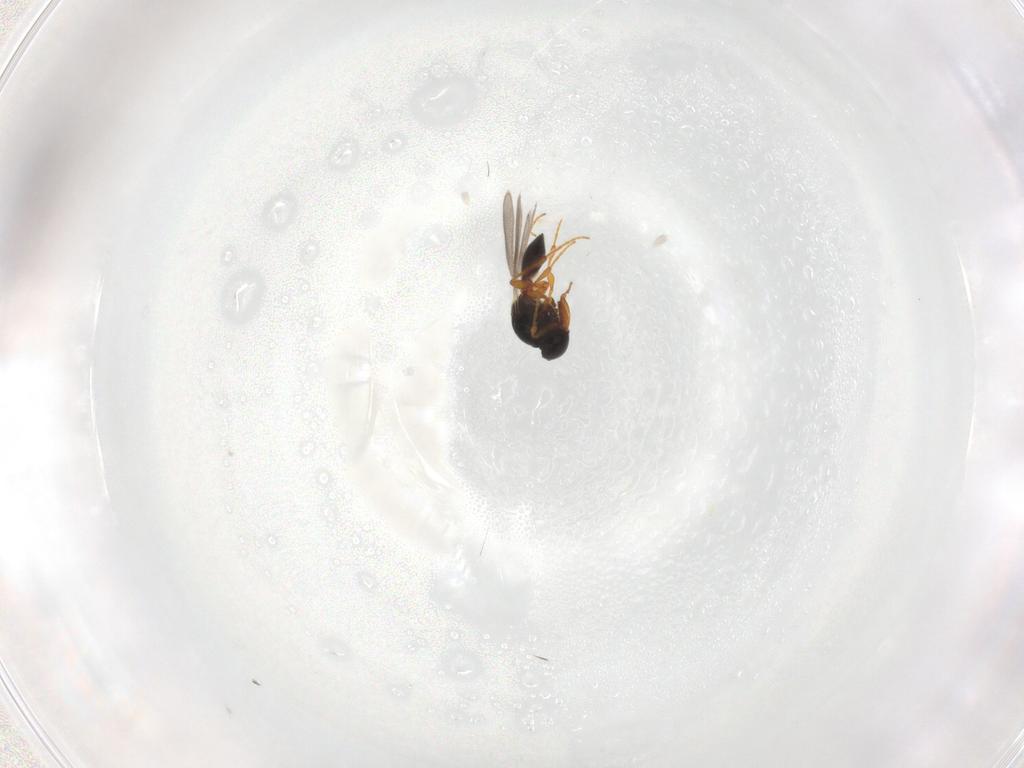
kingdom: Animalia
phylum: Arthropoda
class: Insecta
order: Hymenoptera
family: Platygastridae
